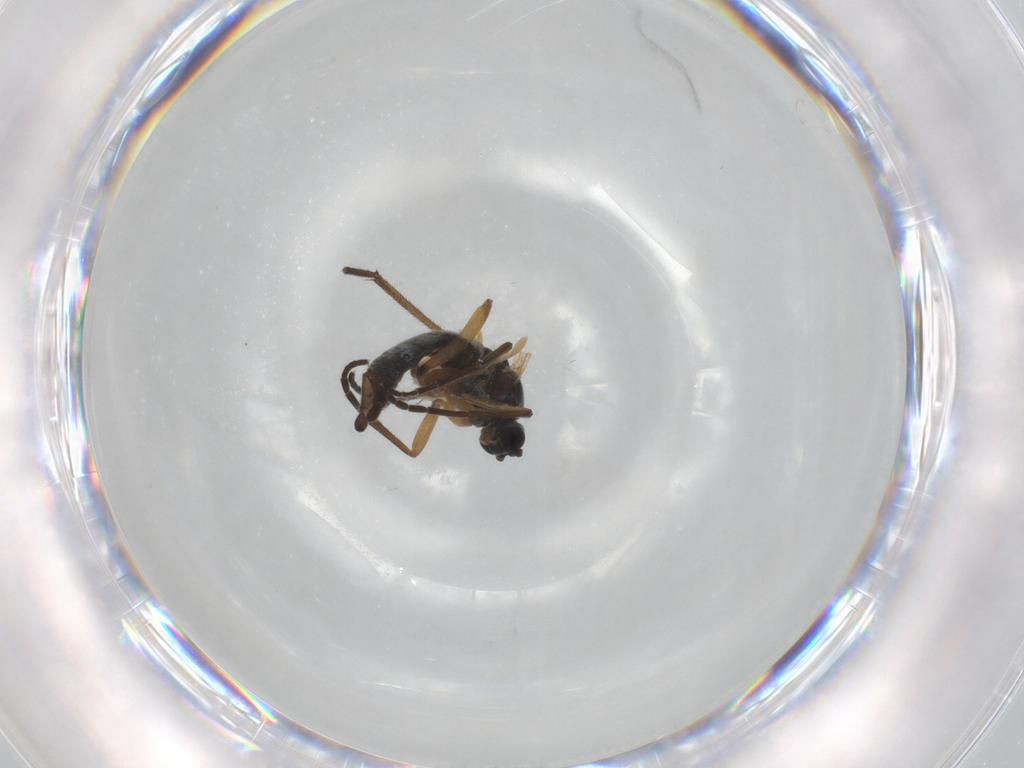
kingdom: Animalia
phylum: Arthropoda
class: Insecta
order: Diptera
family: Sciaridae
